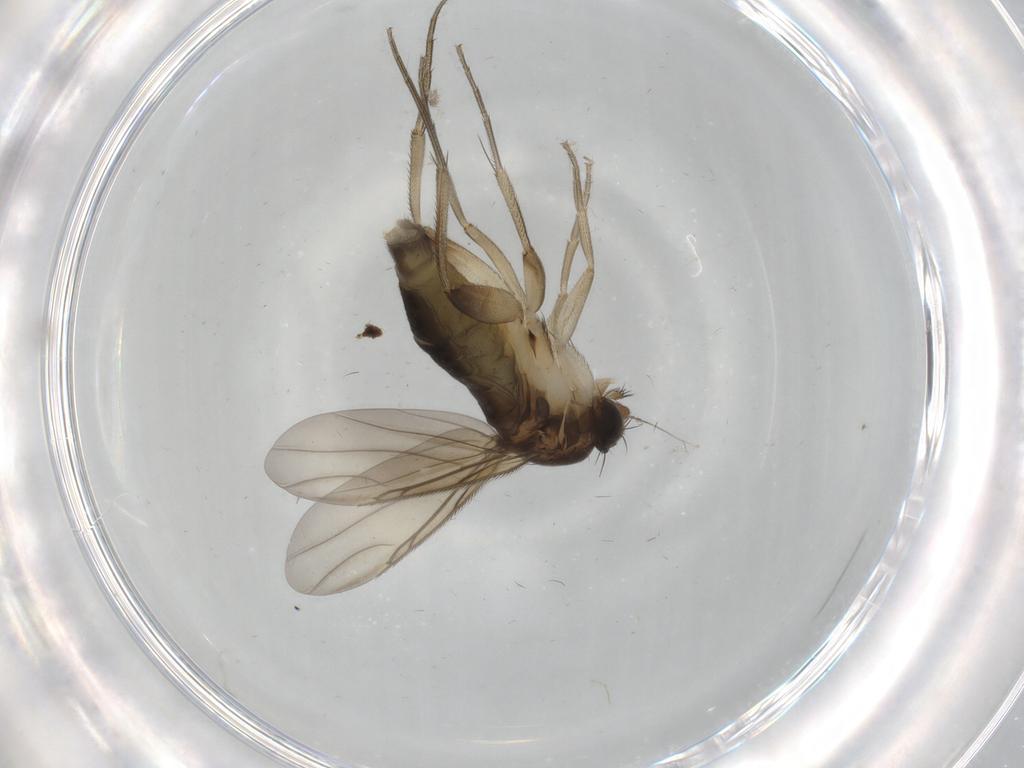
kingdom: Animalia
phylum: Arthropoda
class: Insecta
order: Diptera
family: Phoridae
